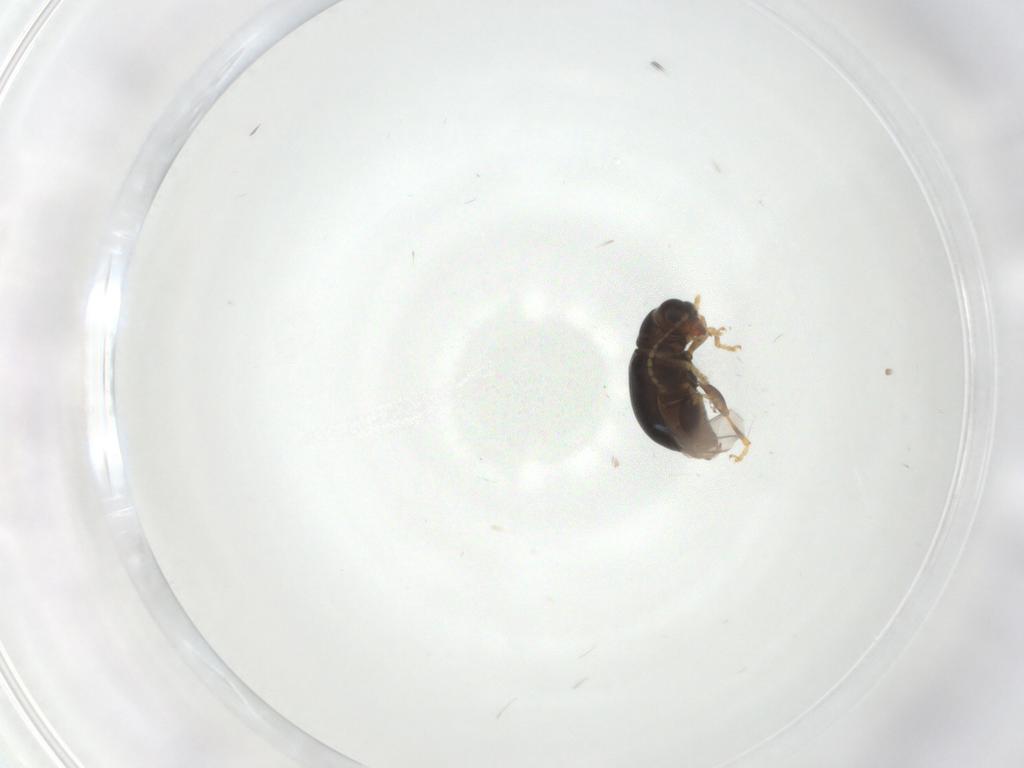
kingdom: Animalia
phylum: Arthropoda
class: Insecta
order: Coleoptera
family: Chrysomelidae
